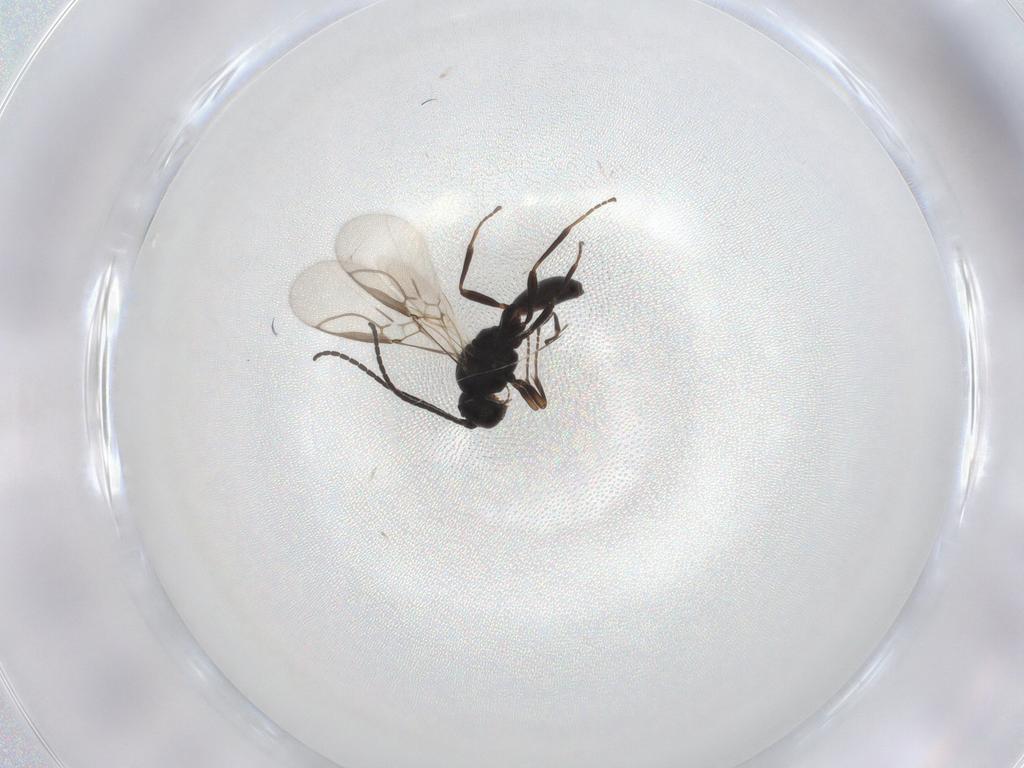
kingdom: Animalia
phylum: Arthropoda
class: Insecta
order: Hymenoptera
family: Braconidae
